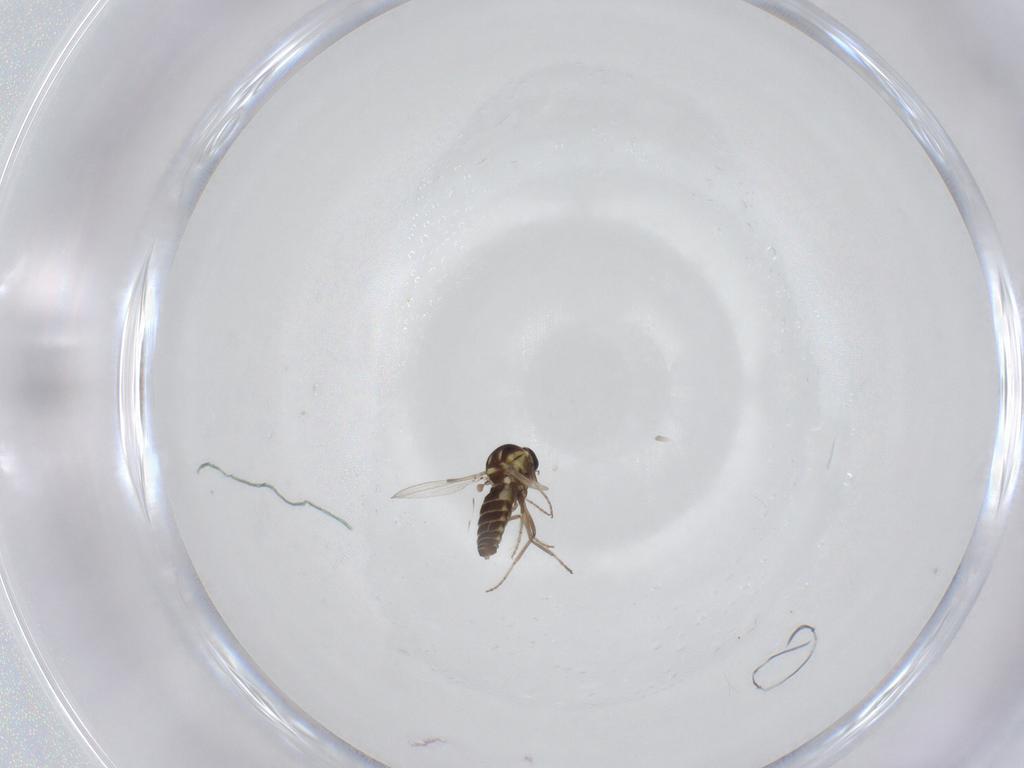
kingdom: Animalia
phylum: Arthropoda
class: Insecta
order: Diptera
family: Ceratopogonidae
